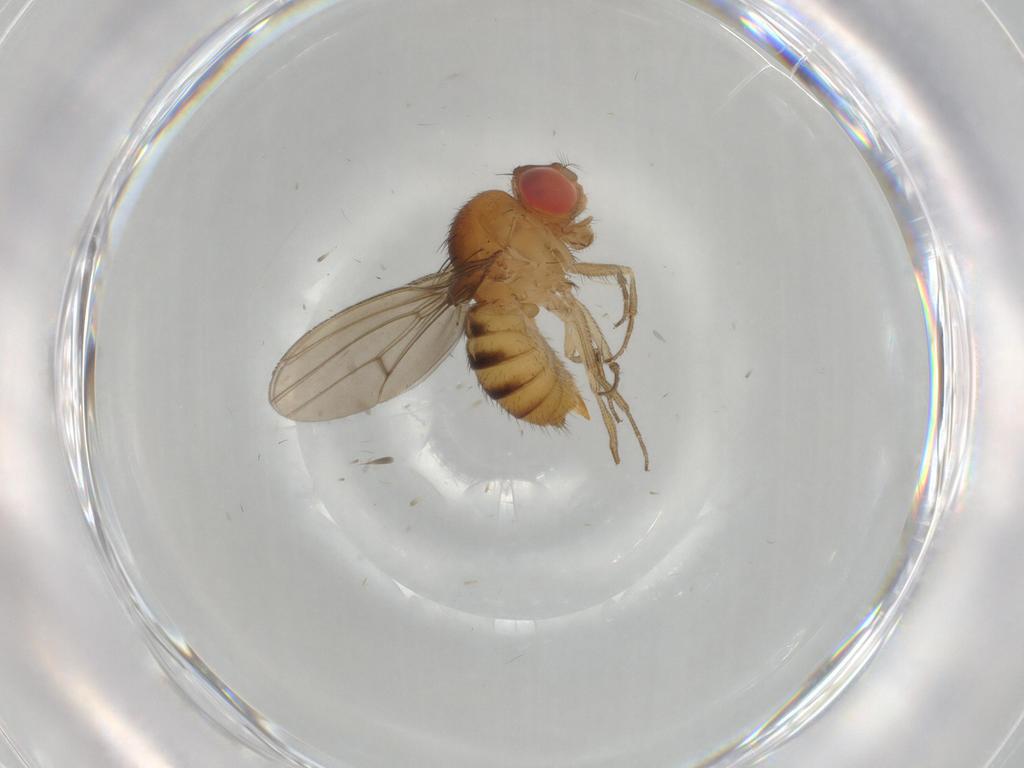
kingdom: Animalia
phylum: Arthropoda
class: Insecta
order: Diptera
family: Drosophilidae
